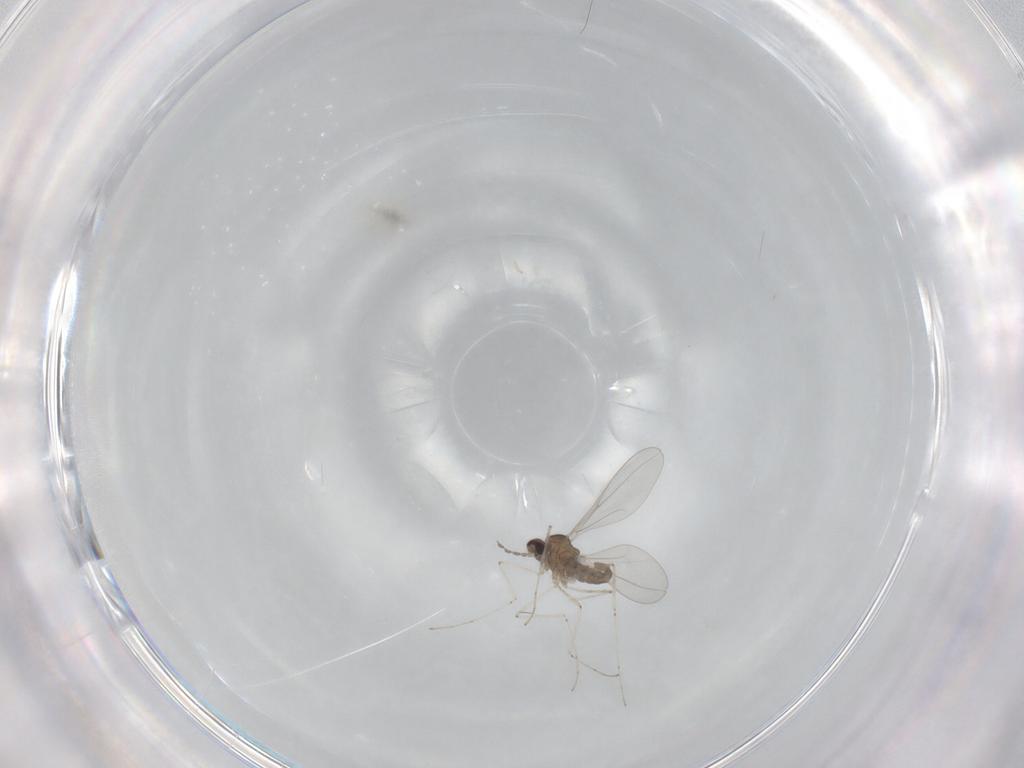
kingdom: Animalia
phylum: Arthropoda
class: Insecta
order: Diptera
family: Cecidomyiidae
